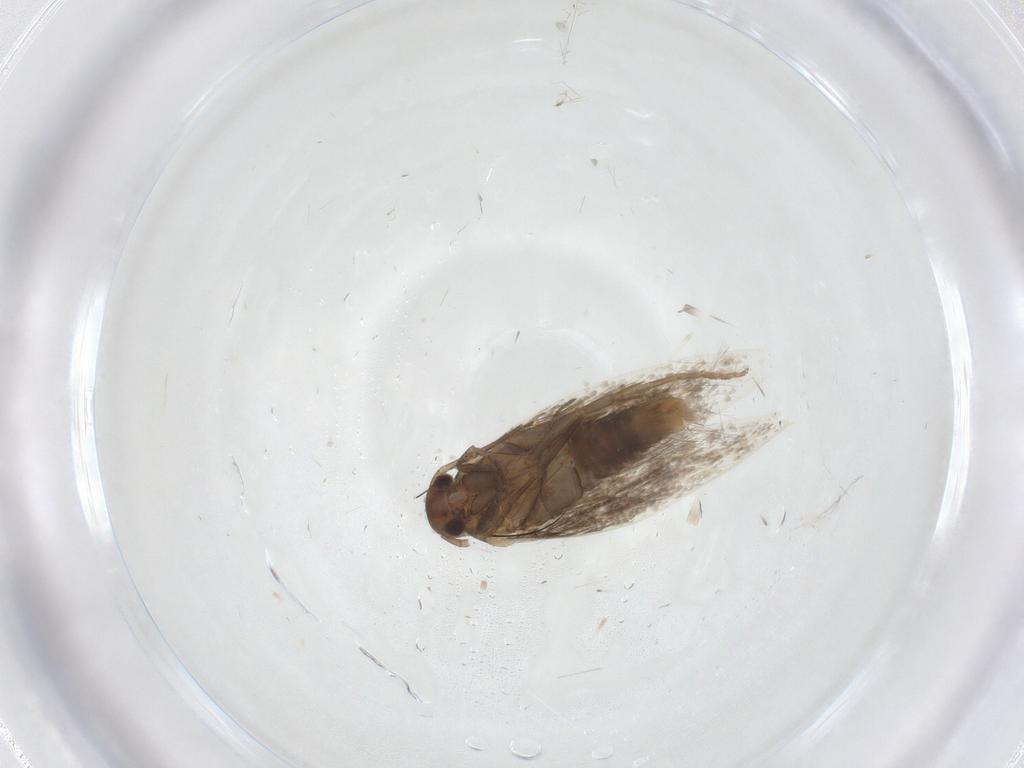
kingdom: Animalia
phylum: Arthropoda
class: Insecta
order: Lepidoptera
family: Elachistidae
